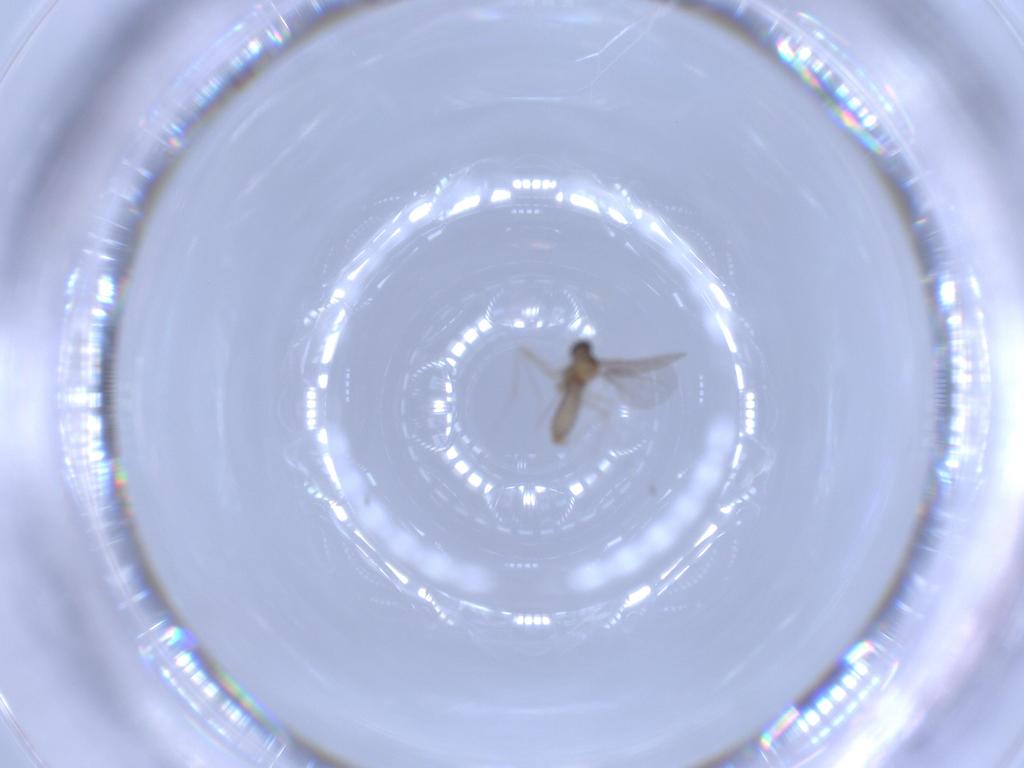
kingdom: Animalia
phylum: Arthropoda
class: Insecta
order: Diptera
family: Cecidomyiidae
